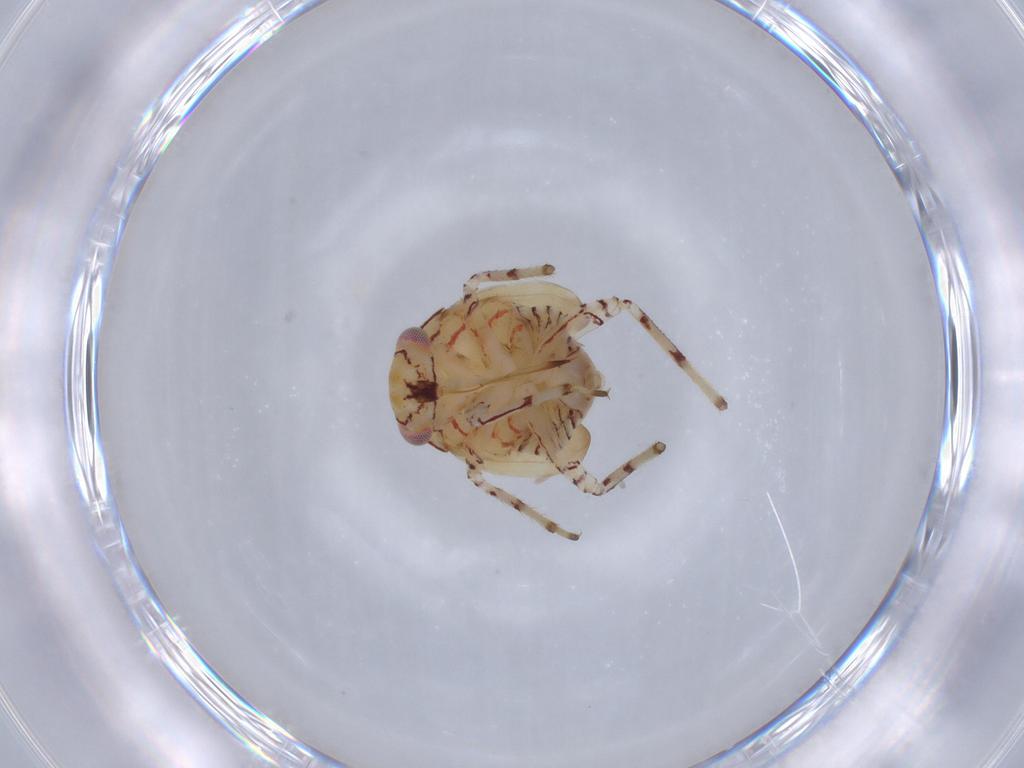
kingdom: Animalia
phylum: Arthropoda
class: Insecta
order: Hemiptera
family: Miridae
